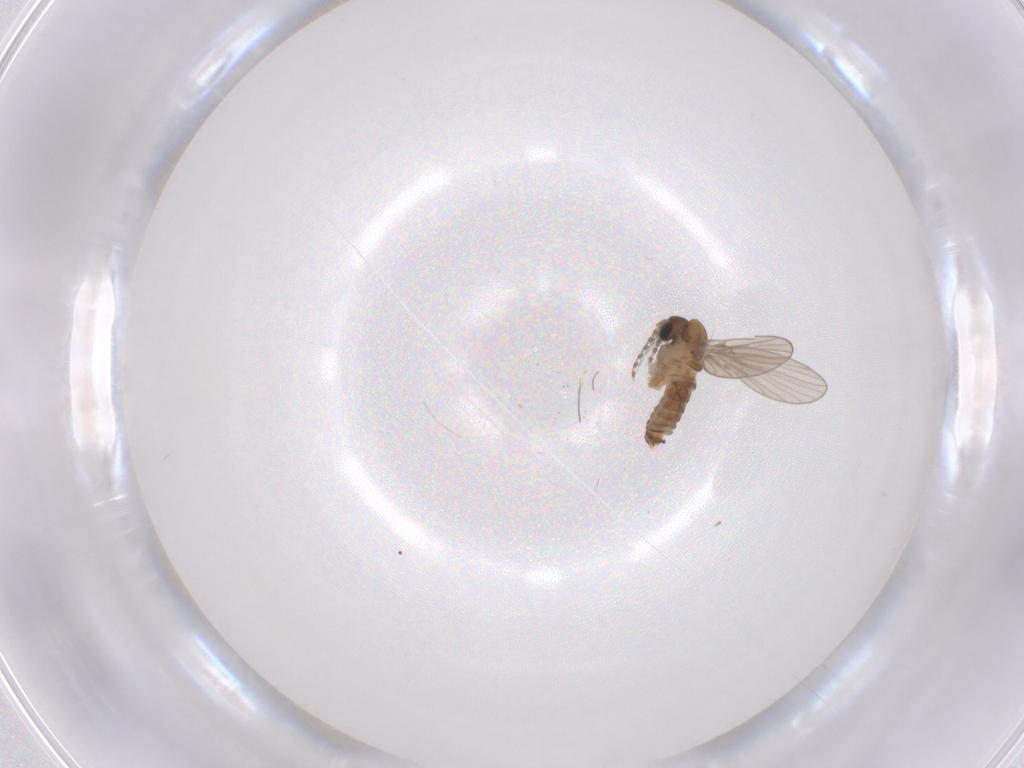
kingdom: Animalia
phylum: Arthropoda
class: Insecta
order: Diptera
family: Psychodidae
